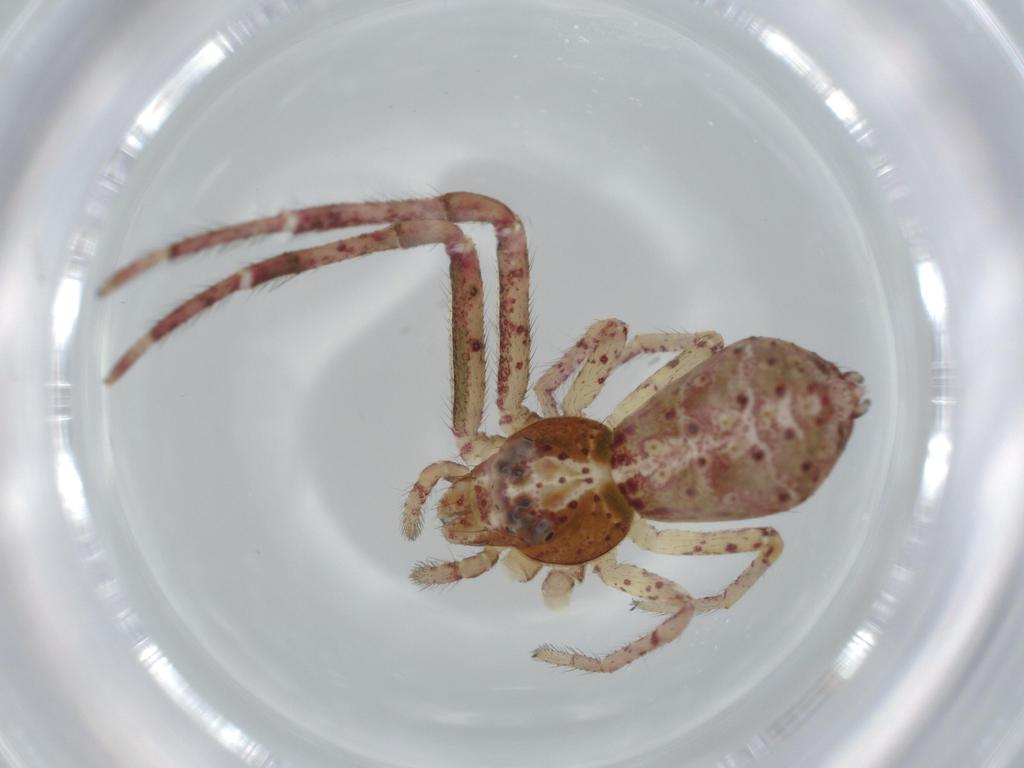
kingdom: Animalia
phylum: Arthropoda
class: Arachnida
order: Araneae
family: Thomisidae
